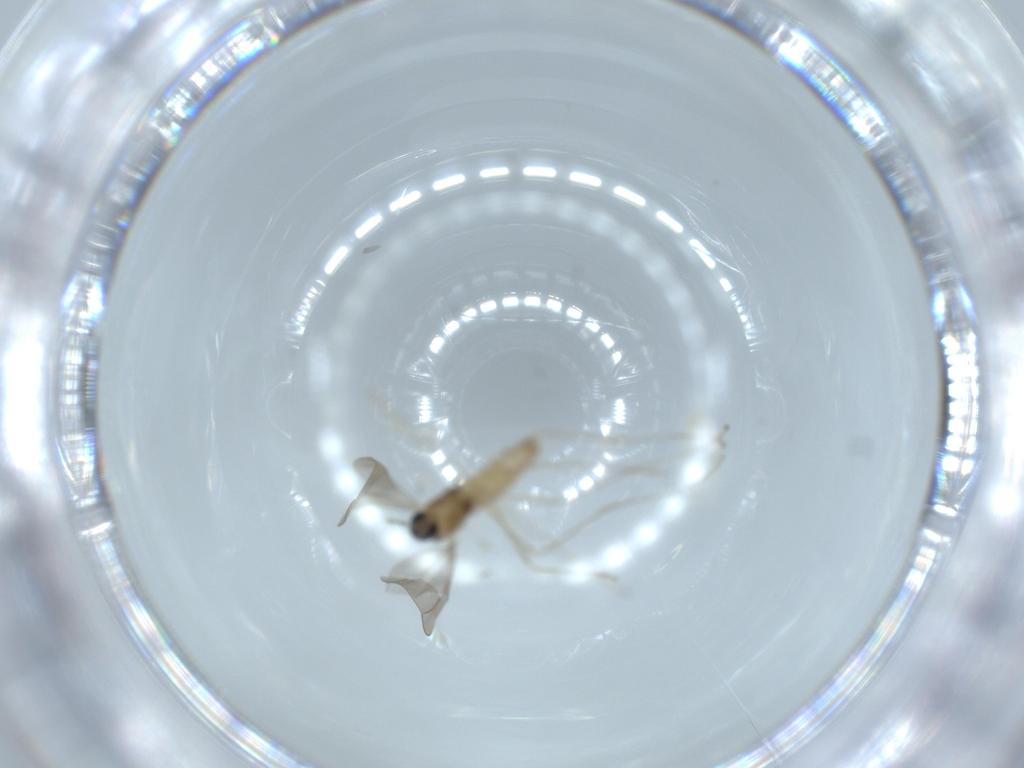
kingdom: Animalia
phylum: Arthropoda
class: Insecta
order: Diptera
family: Cecidomyiidae
